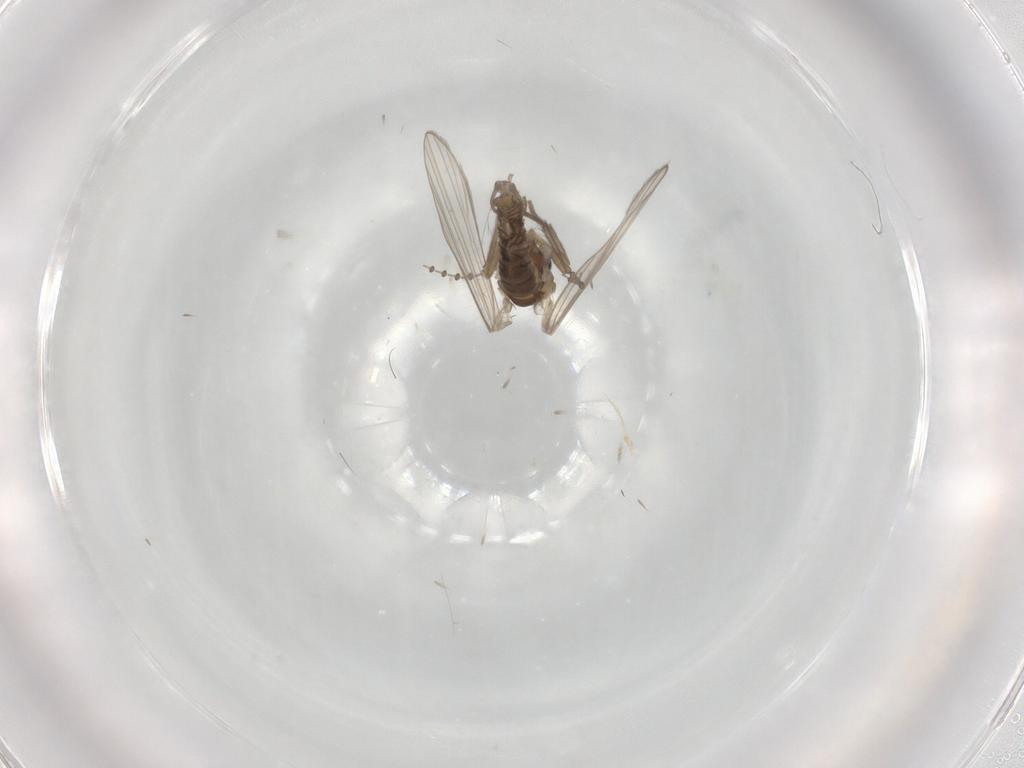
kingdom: Animalia
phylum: Arthropoda
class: Insecta
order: Diptera
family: Psychodidae
